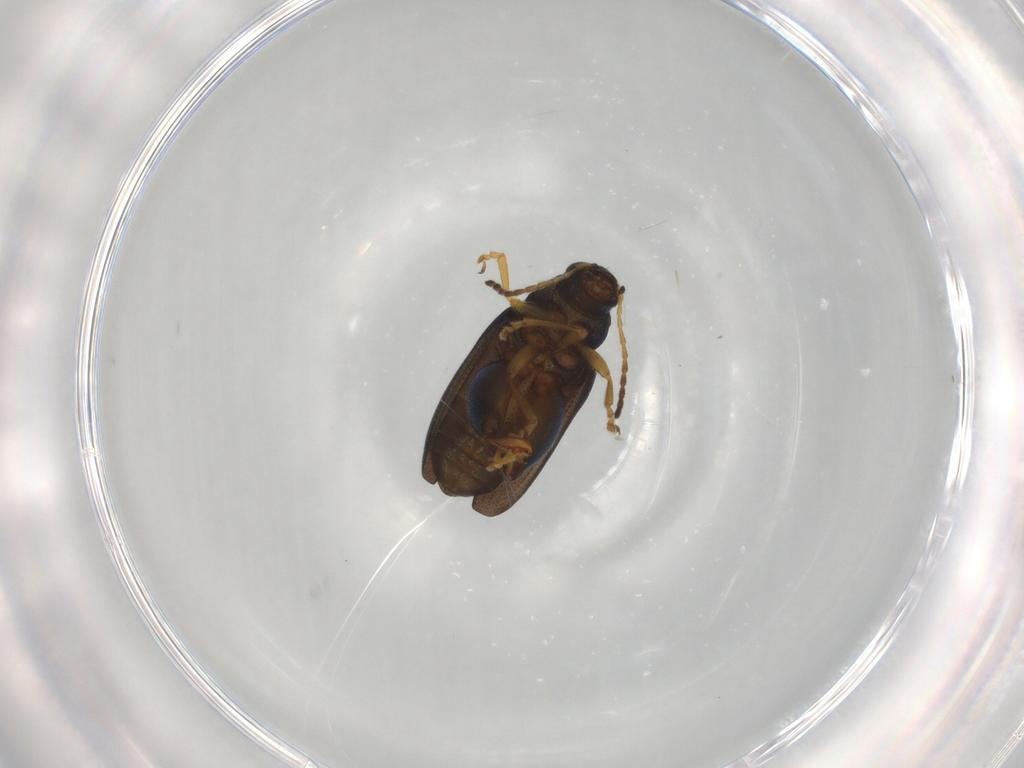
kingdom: Animalia
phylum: Arthropoda
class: Insecta
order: Coleoptera
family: Chrysomelidae
